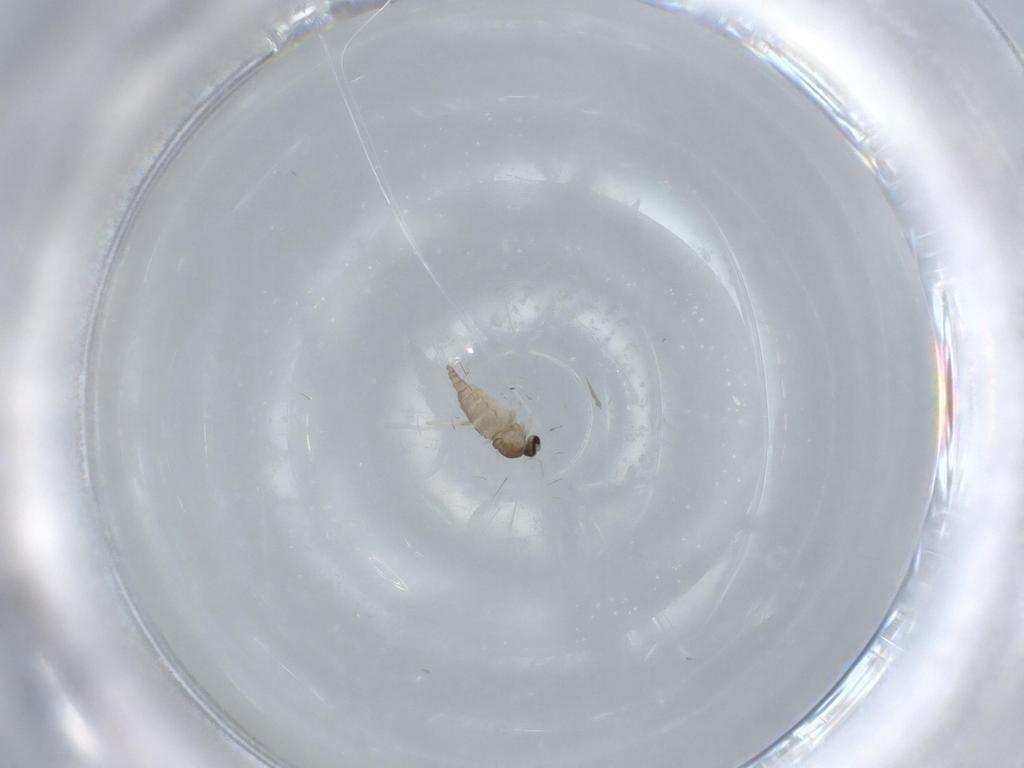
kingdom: Animalia
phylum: Arthropoda
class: Insecta
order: Diptera
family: Cecidomyiidae
